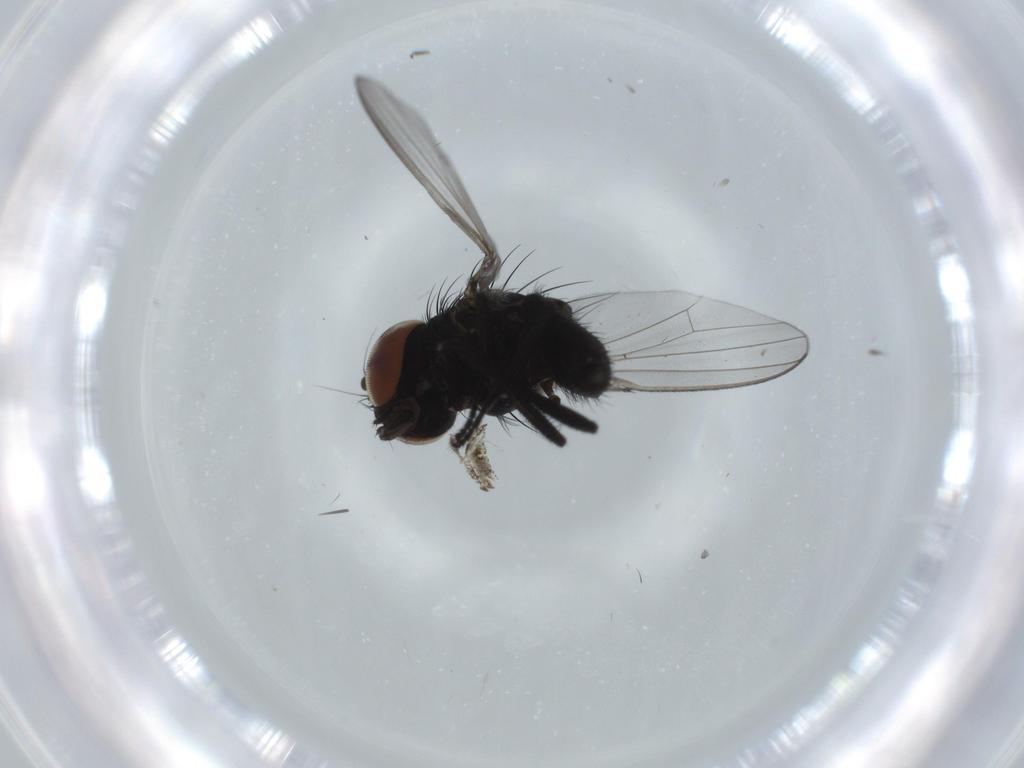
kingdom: Animalia
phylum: Arthropoda
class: Insecta
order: Diptera
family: Milichiidae
